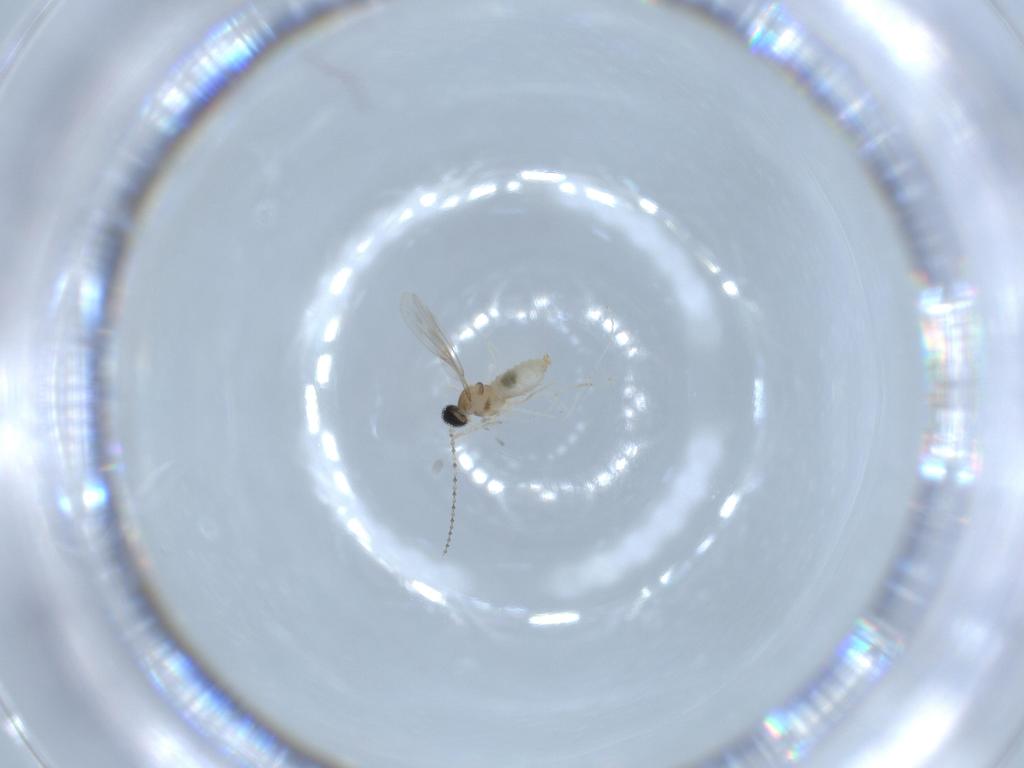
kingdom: Animalia
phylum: Arthropoda
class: Insecta
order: Diptera
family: Cecidomyiidae
